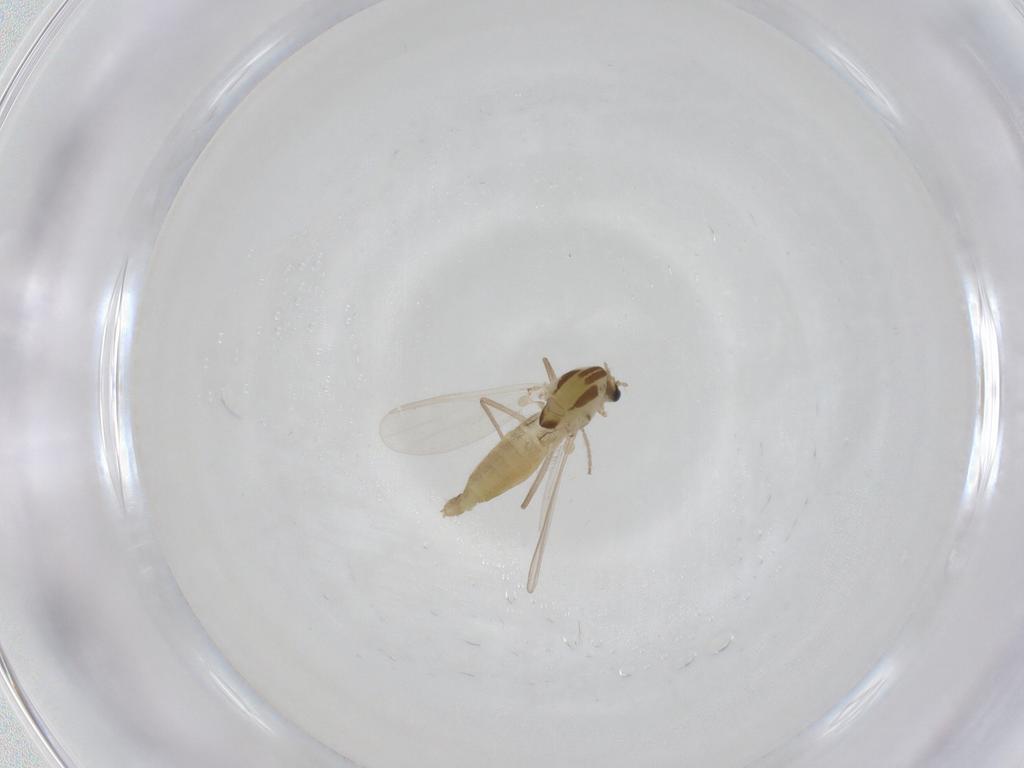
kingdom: Animalia
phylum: Arthropoda
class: Insecta
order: Diptera
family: Chironomidae
